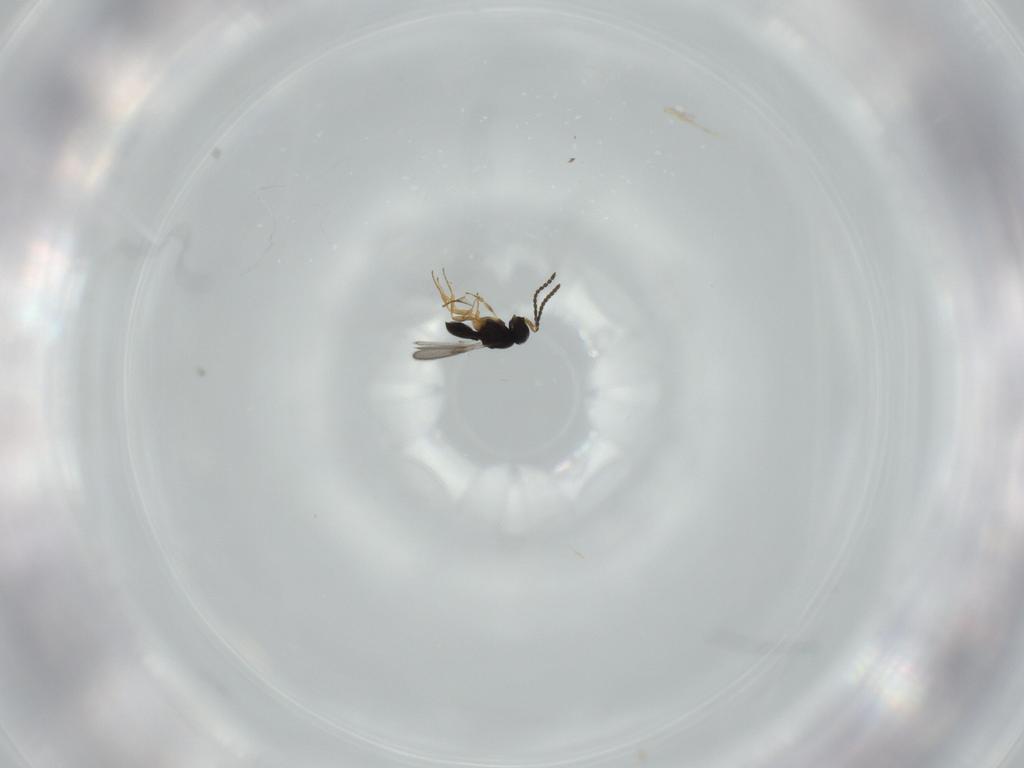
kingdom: Animalia
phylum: Arthropoda
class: Insecta
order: Hymenoptera
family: Scelionidae
